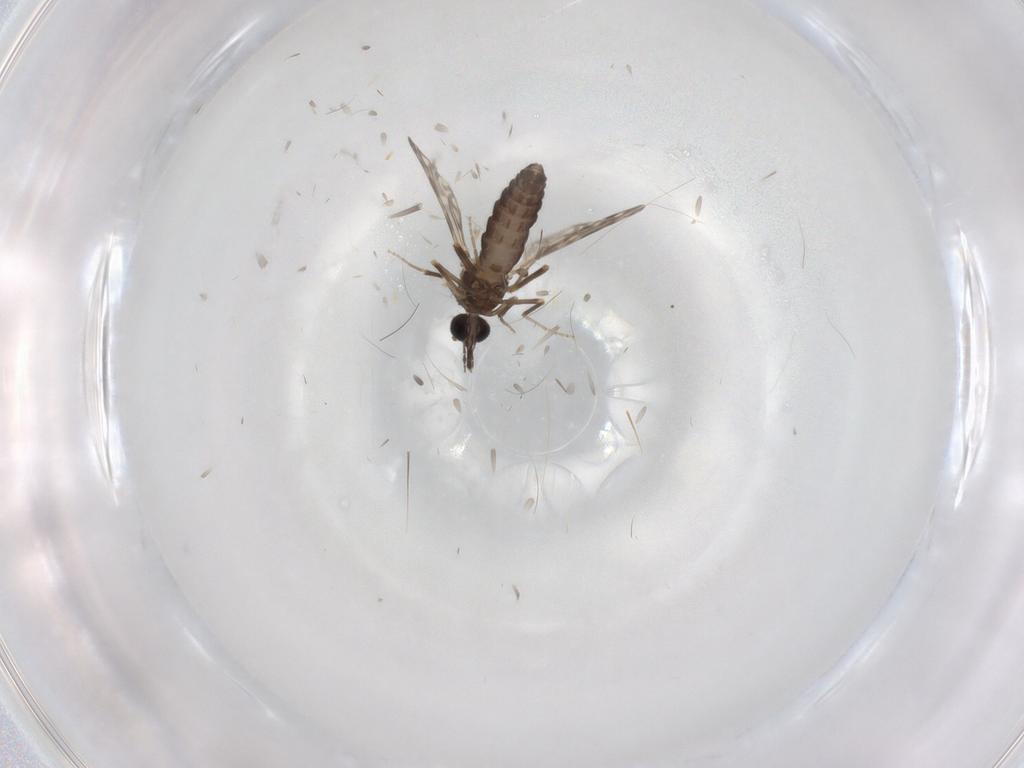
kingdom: Animalia
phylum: Arthropoda
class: Insecta
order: Diptera
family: Ceratopogonidae
